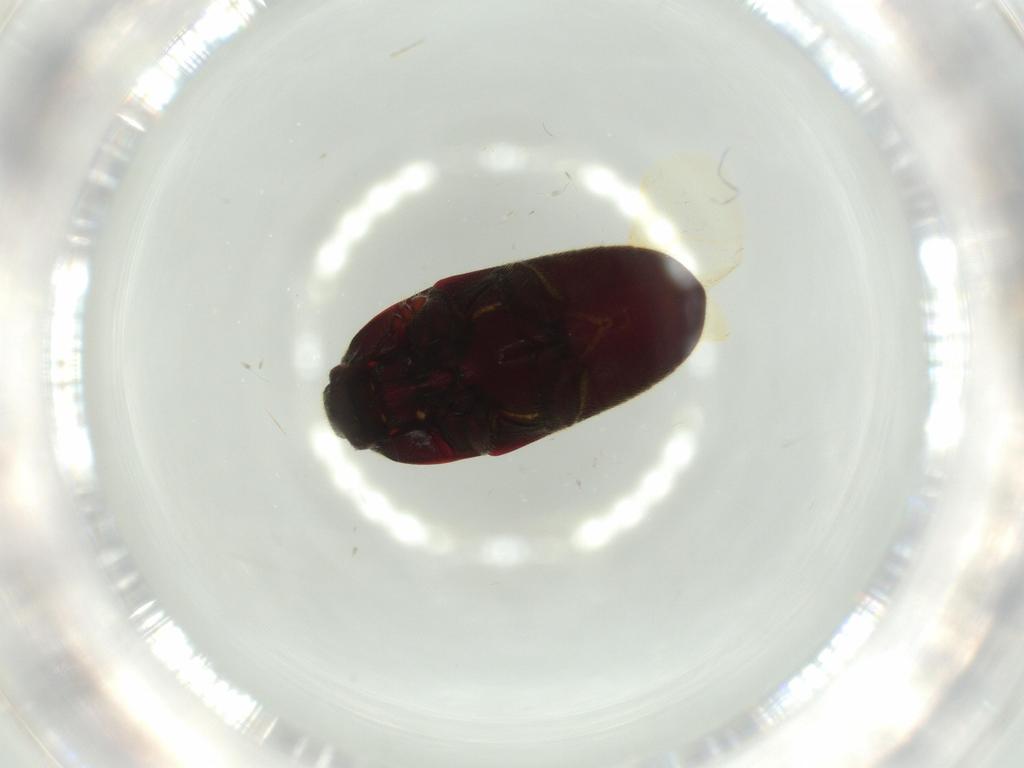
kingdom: Animalia
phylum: Arthropoda
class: Insecta
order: Coleoptera
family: Throscidae
